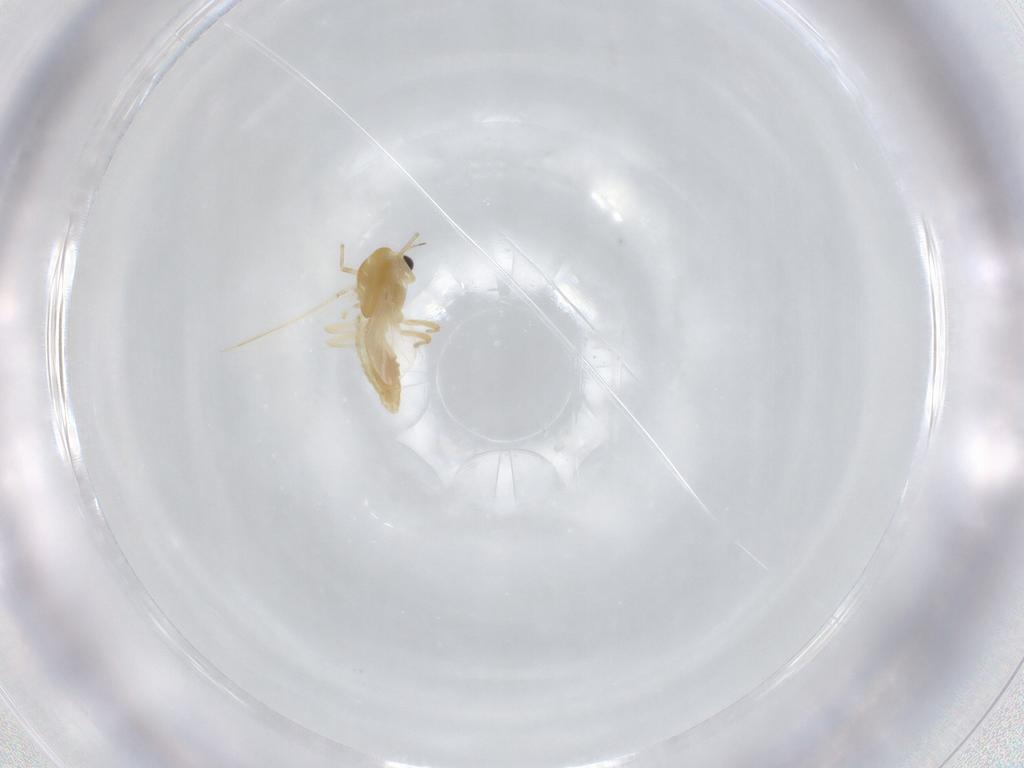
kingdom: Animalia
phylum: Arthropoda
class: Insecta
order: Diptera
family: Chironomidae
